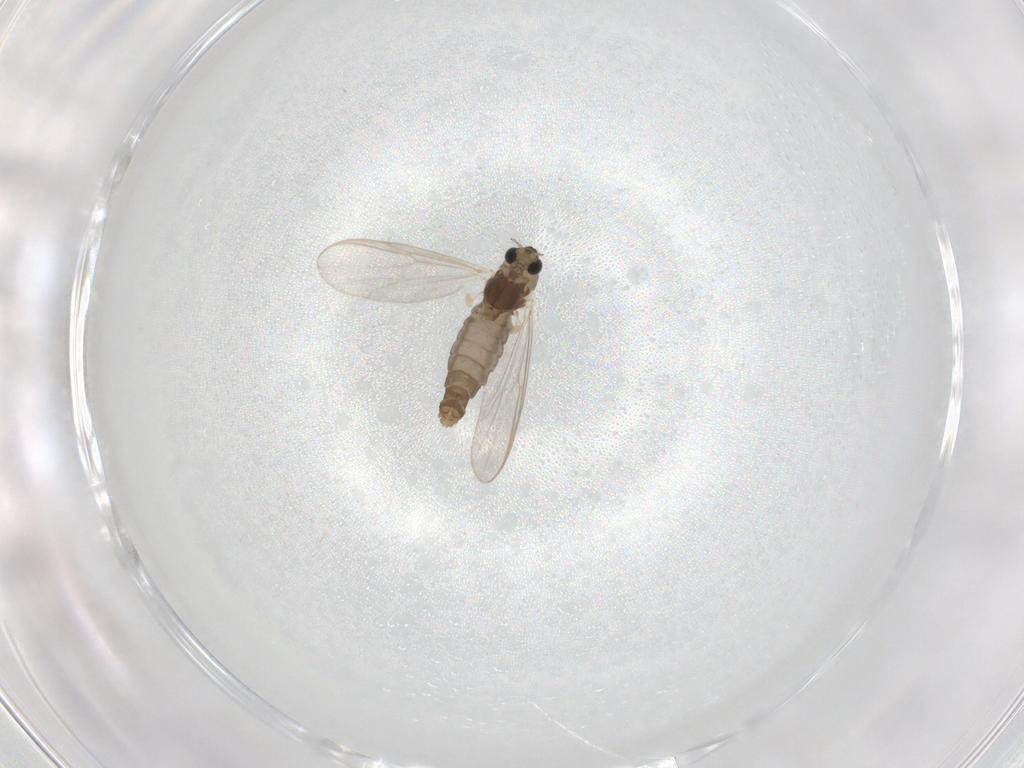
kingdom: Animalia
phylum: Arthropoda
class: Insecta
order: Diptera
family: Chironomidae
